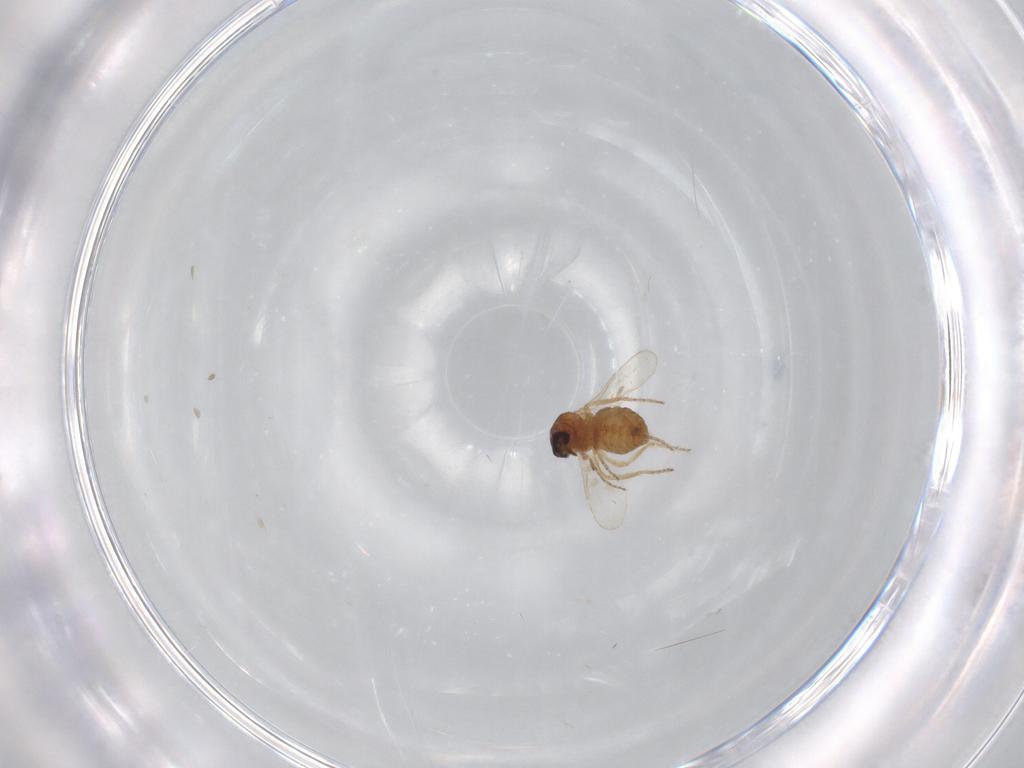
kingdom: Animalia
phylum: Arthropoda
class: Insecta
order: Diptera
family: Ceratopogonidae
